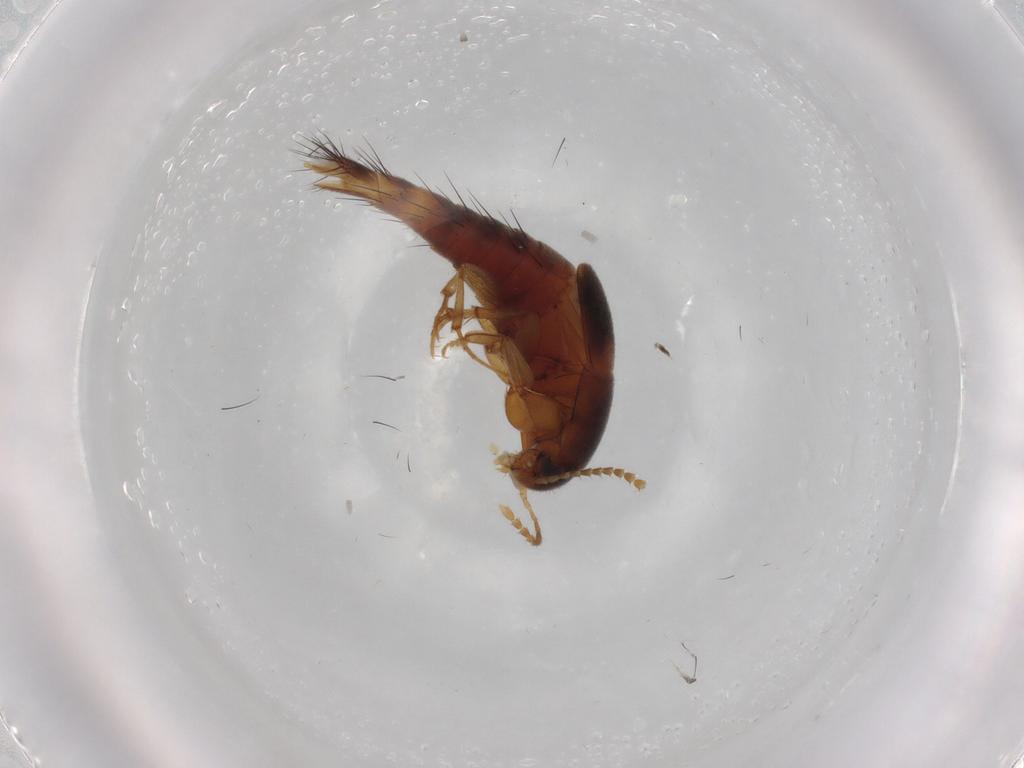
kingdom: Animalia
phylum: Arthropoda
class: Insecta
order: Coleoptera
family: Staphylinidae
